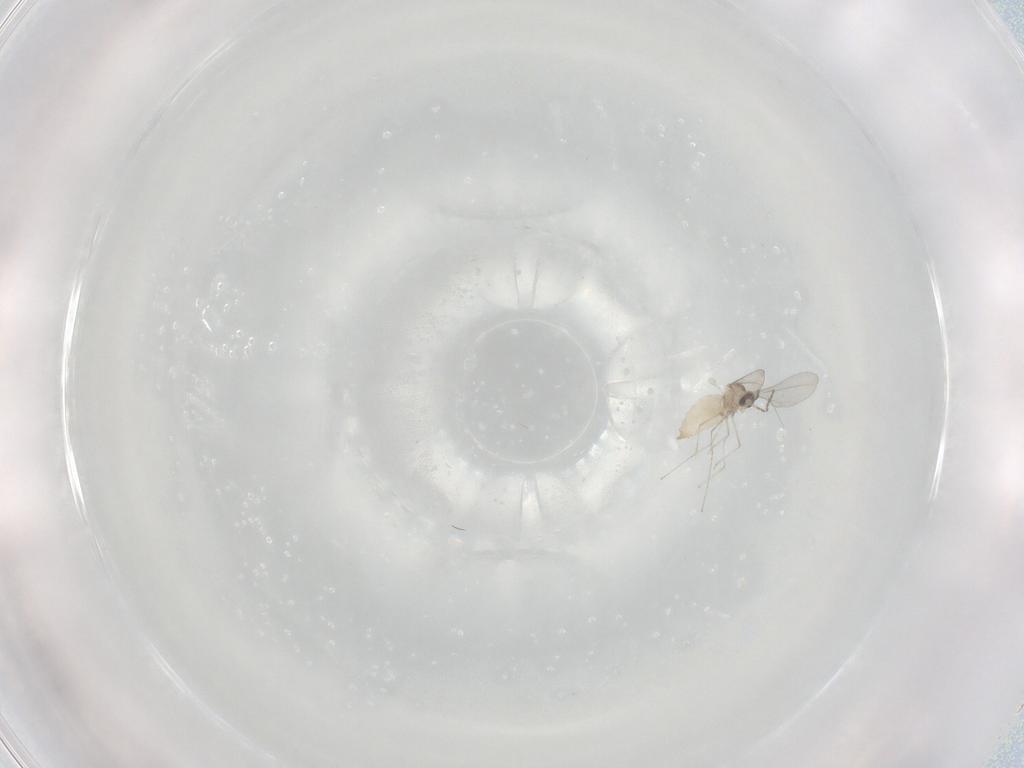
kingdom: Animalia
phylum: Arthropoda
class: Insecta
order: Diptera
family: Cecidomyiidae
